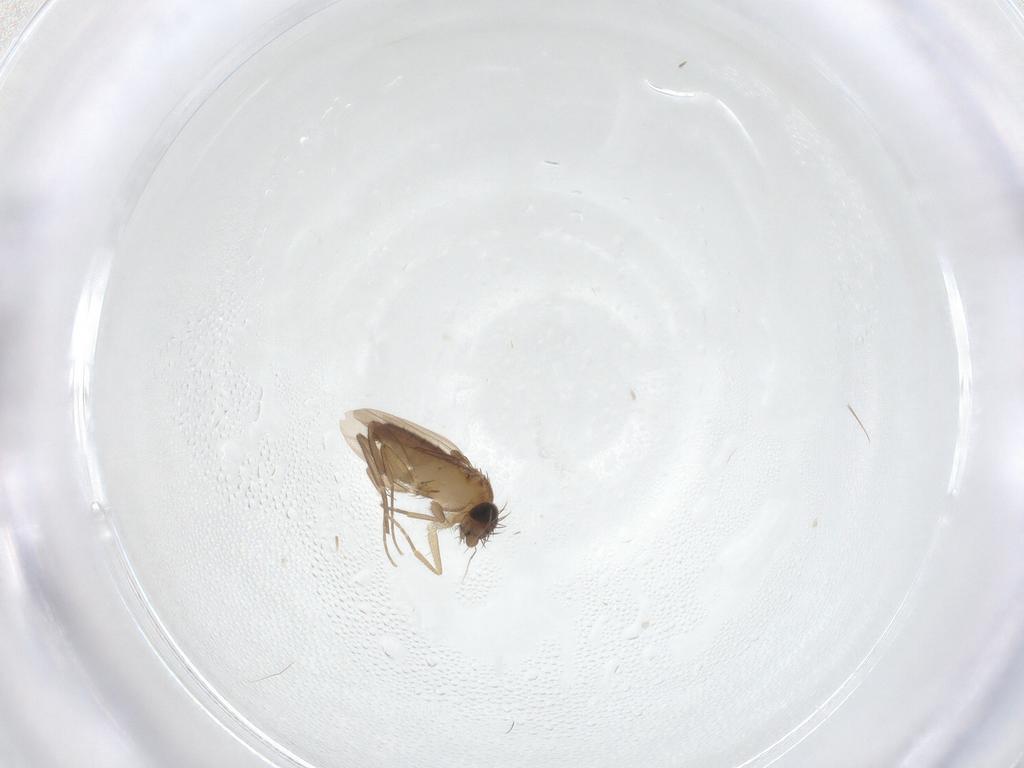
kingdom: Animalia
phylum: Arthropoda
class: Insecta
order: Diptera
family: Phoridae
